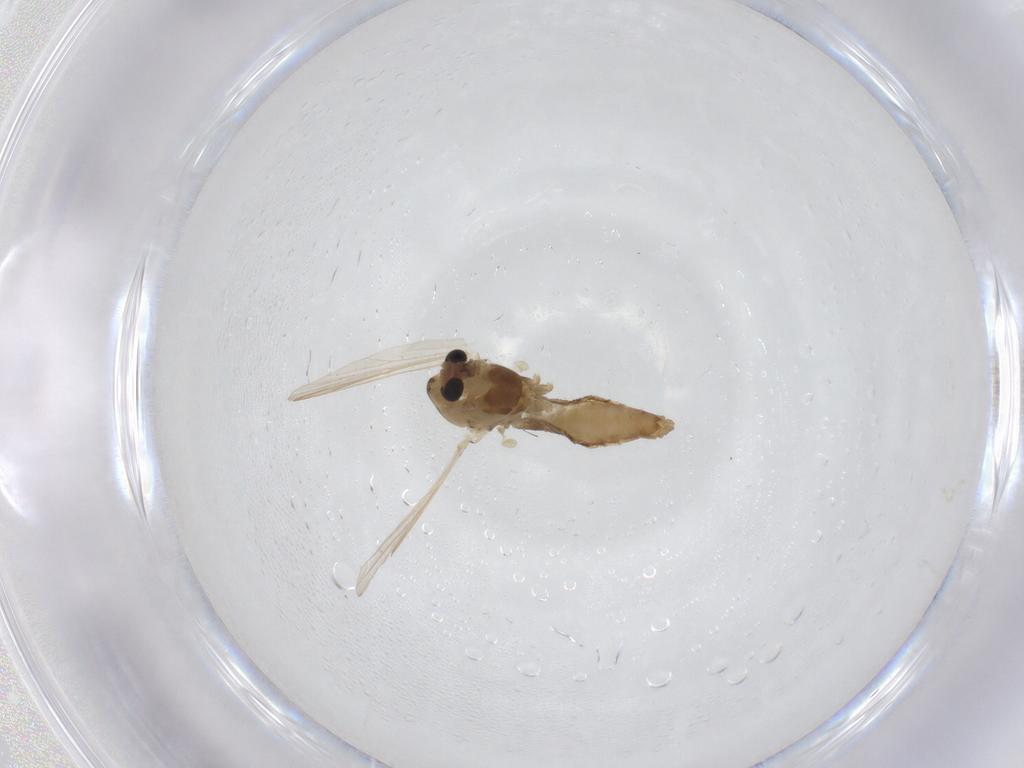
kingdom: Animalia
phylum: Arthropoda
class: Insecta
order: Diptera
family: Chironomidae
